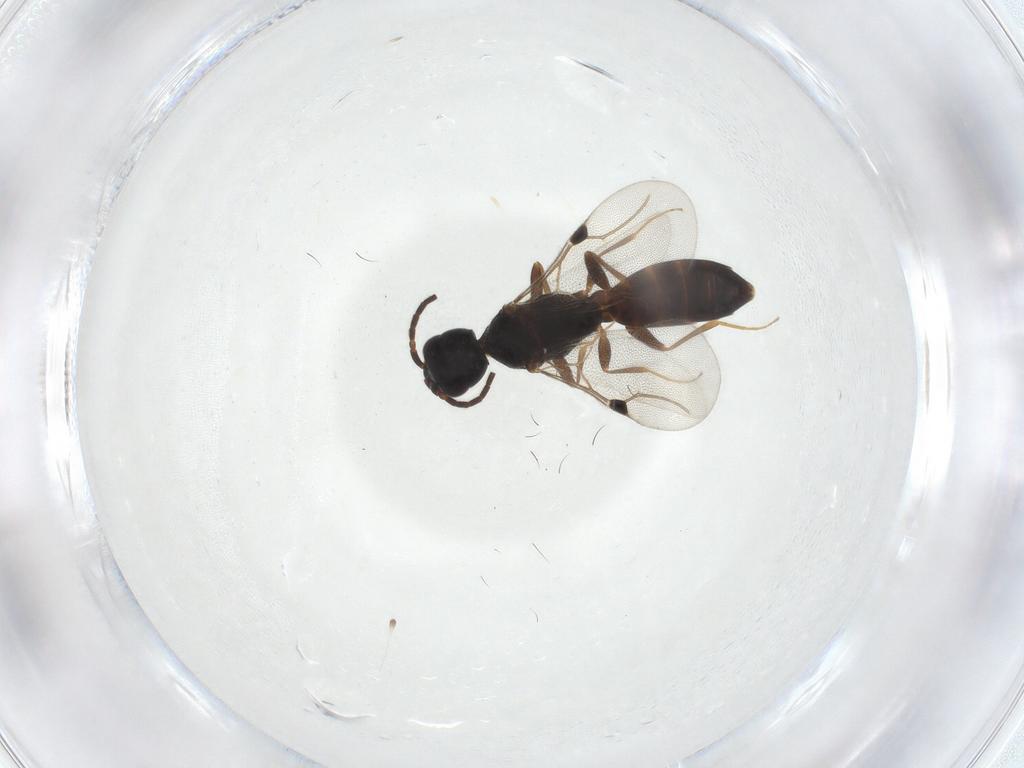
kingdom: Animalia
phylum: Arthropoda
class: Insecta
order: Hymenoptera
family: Bethylidae
